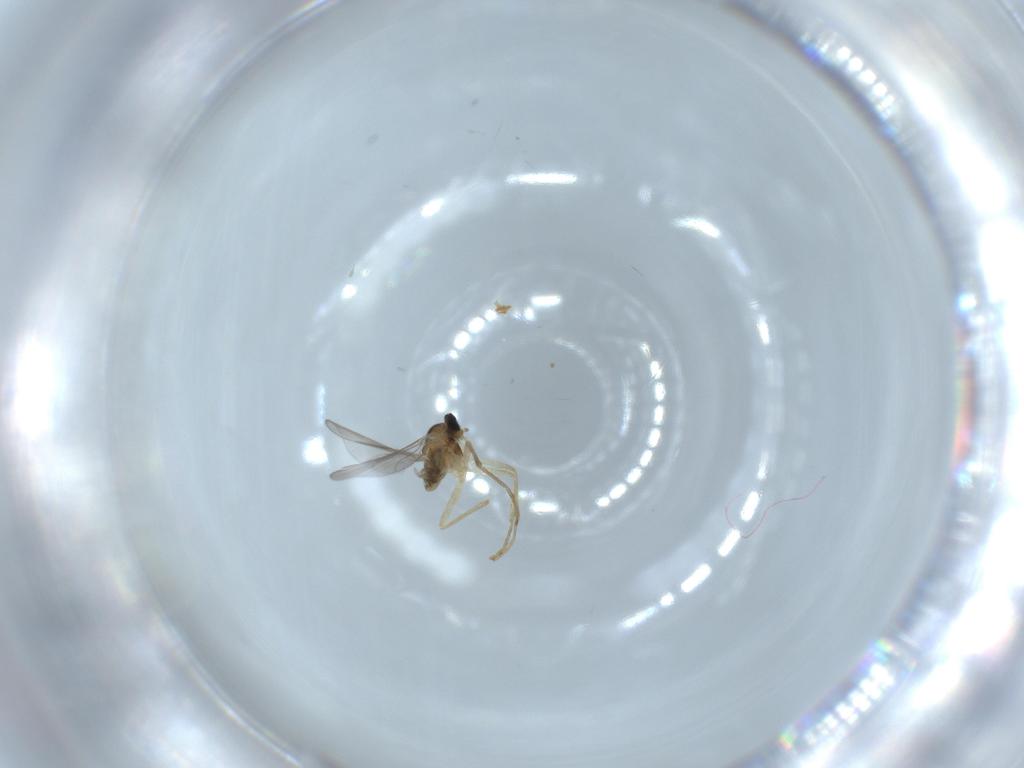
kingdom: Animalia
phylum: Arthropoda
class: Insecta
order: Diptera
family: Cecidomyiidae
